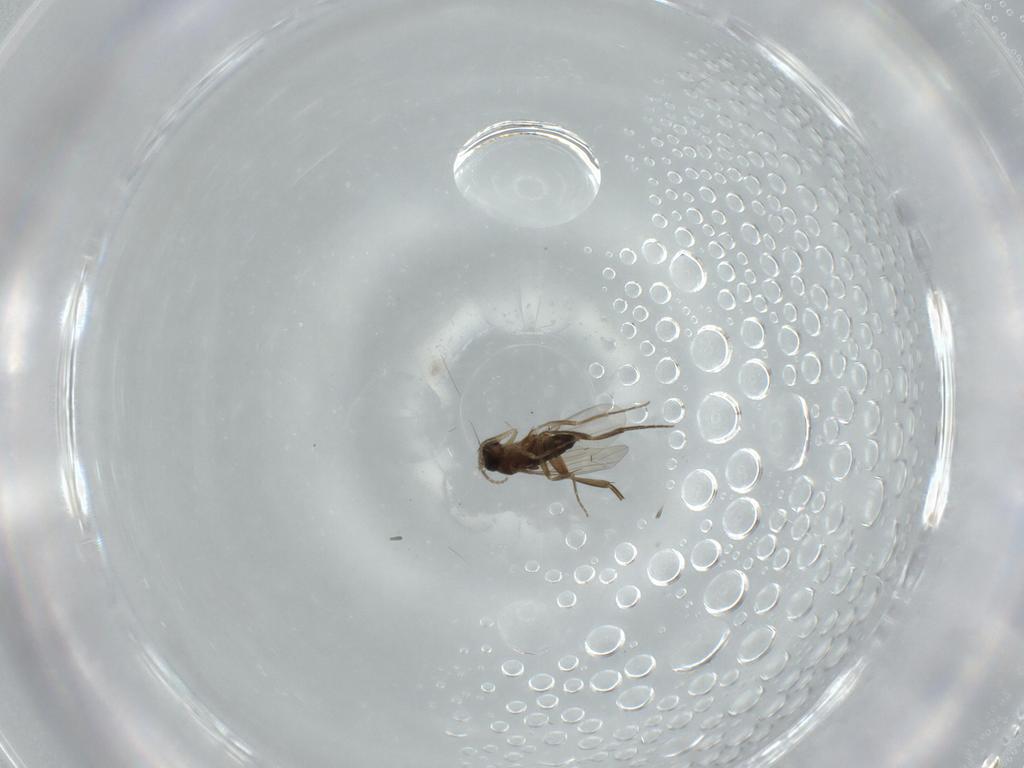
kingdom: Animalia
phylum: Arthropoda
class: Insecta
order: Diptera
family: Phoridae
